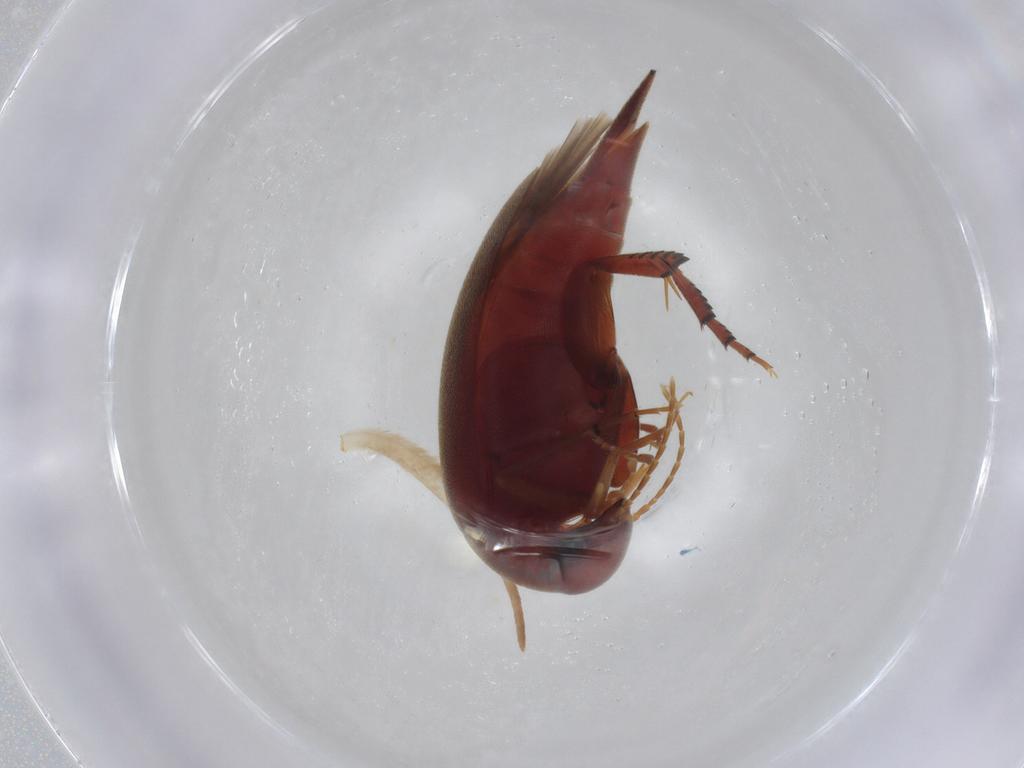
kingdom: Animalia
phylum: Arthropoda
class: Insecta
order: Coleoptera
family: Mordellidae
